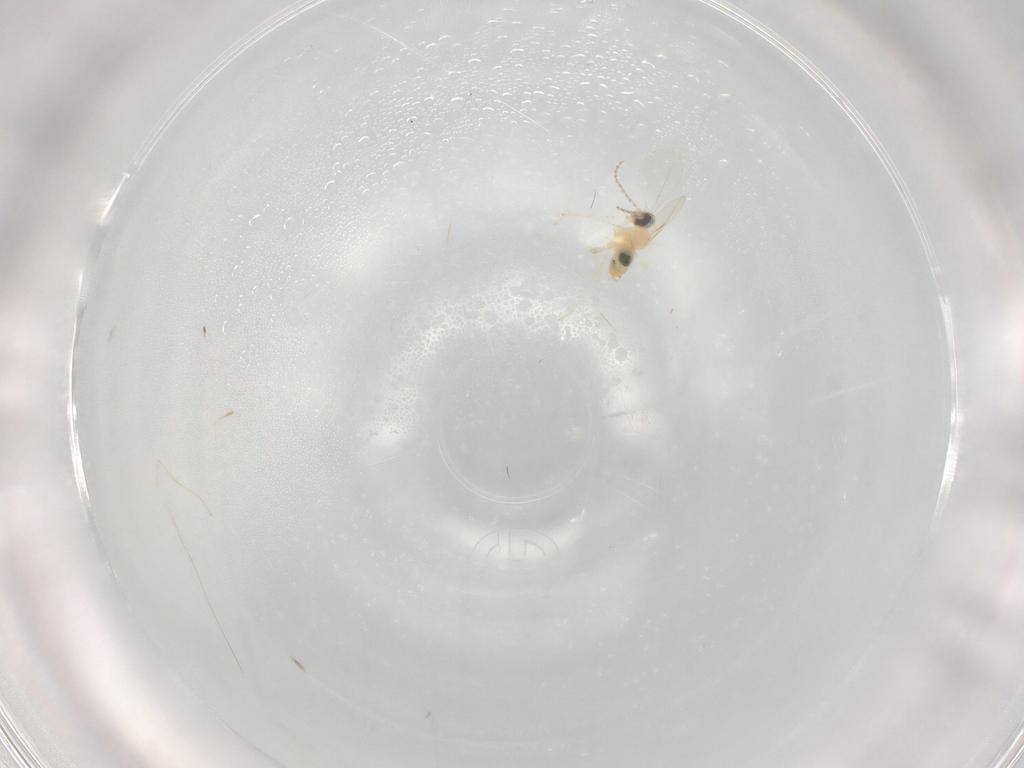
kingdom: Animalia
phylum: Arthropoda
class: Insecta
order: Diptera
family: Cecidomyiidae
